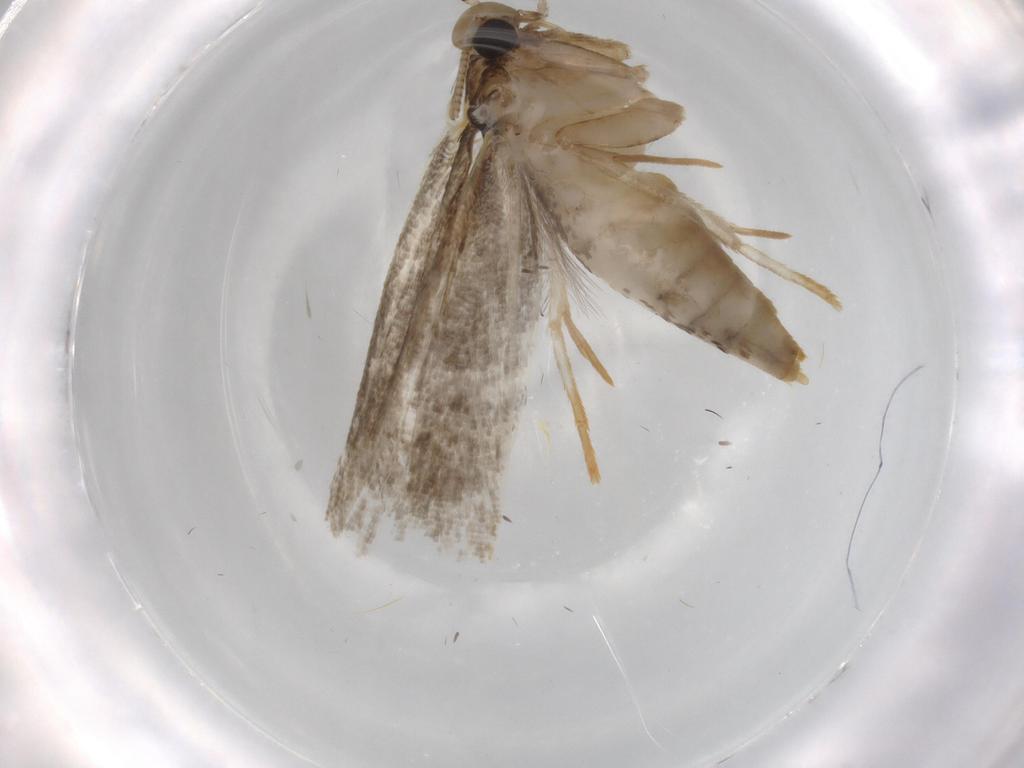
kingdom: Animalia
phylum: Arthropoda
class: Insecta
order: Lepidoptera
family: Tineidae
